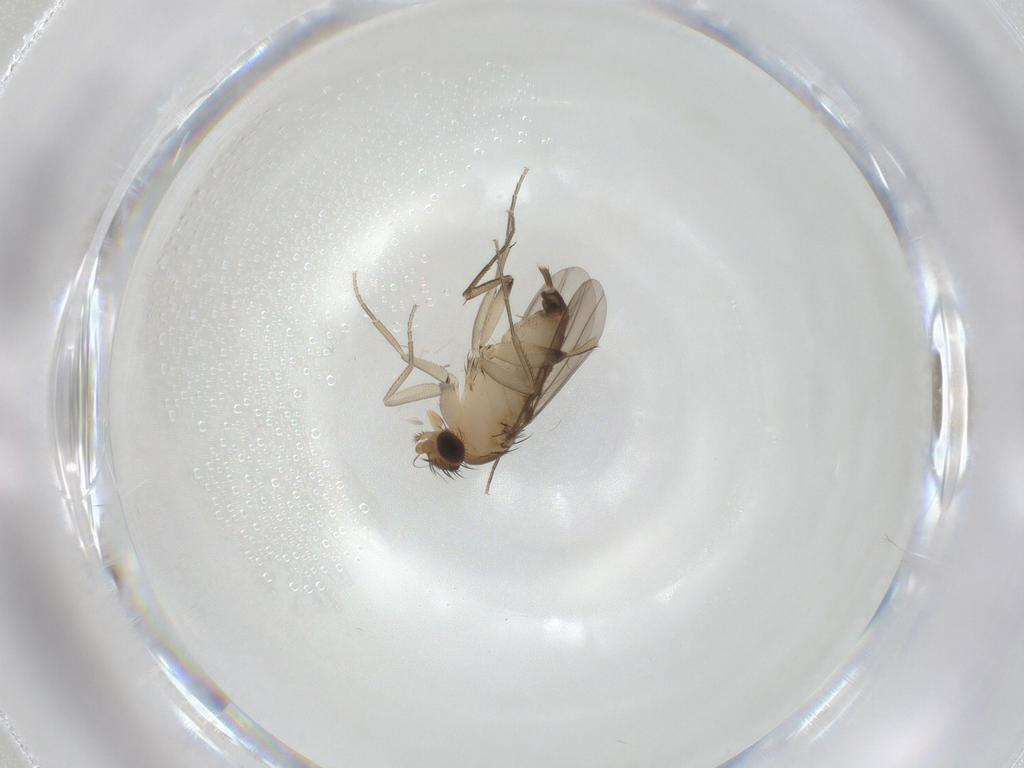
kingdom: Animalia
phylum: Arthropoda
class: Insecta
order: Diptera
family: Phoridae
